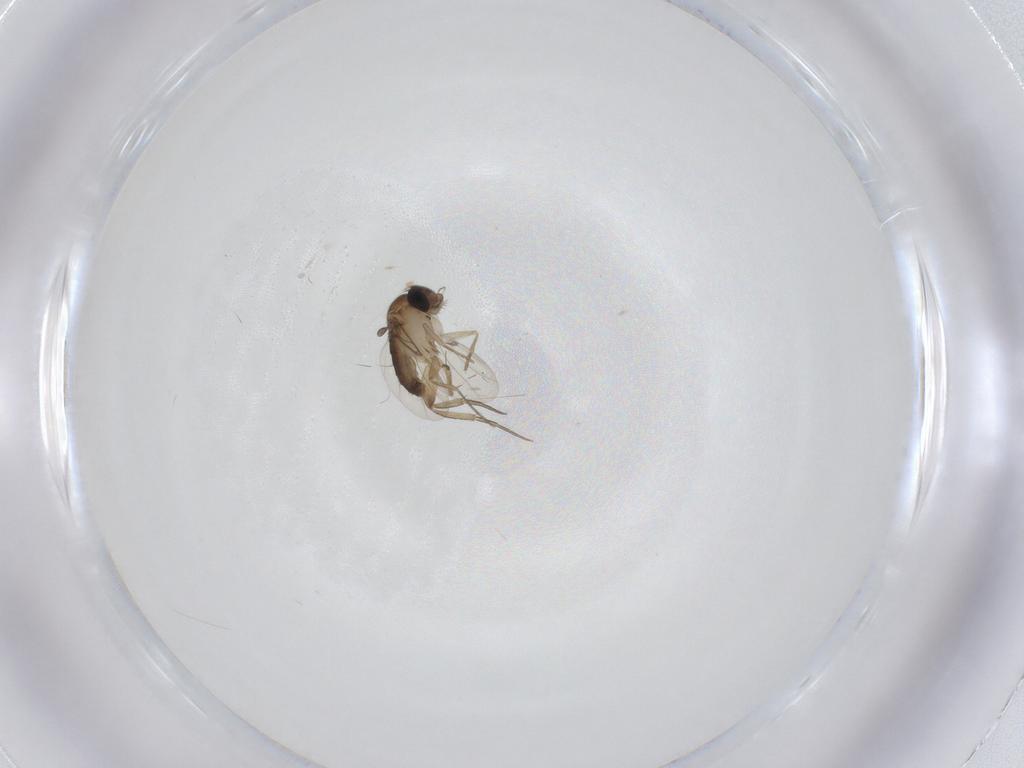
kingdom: Animalia
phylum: Arthropoda
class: Insecta
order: Diptera
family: Phoridae
